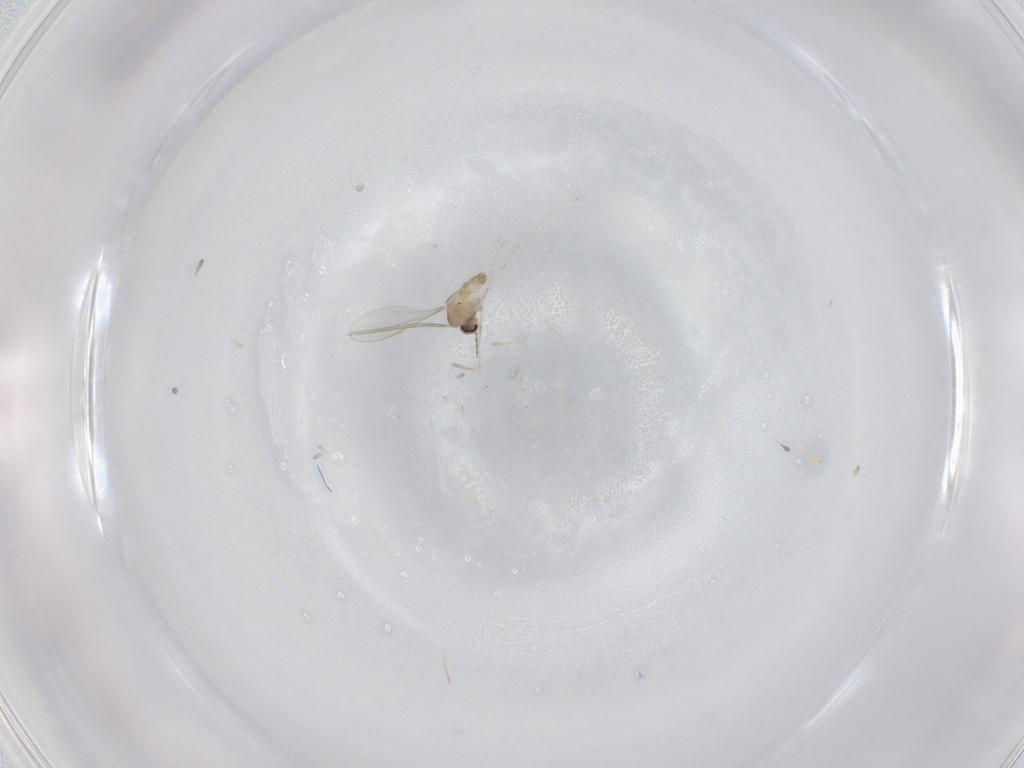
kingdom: Animalia
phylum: Arthropoda
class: Insecta
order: Diptera
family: Cecidomyiidae
